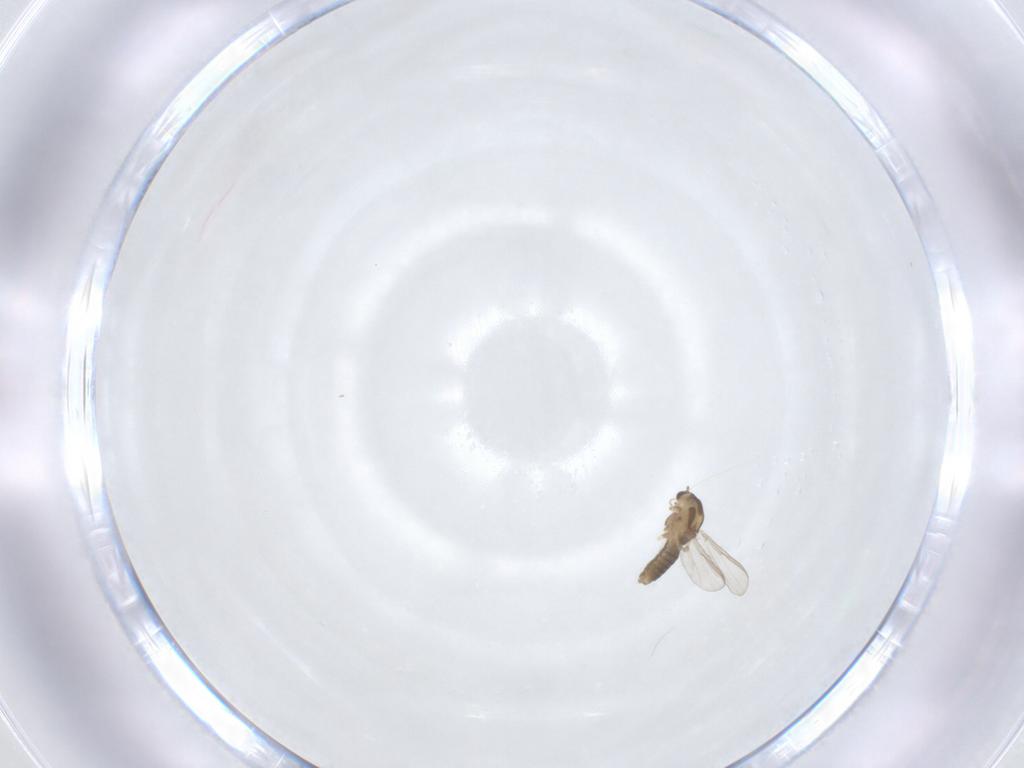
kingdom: Animalia
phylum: Arthropoda
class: Insecta
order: Diptera
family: Chironomidae
